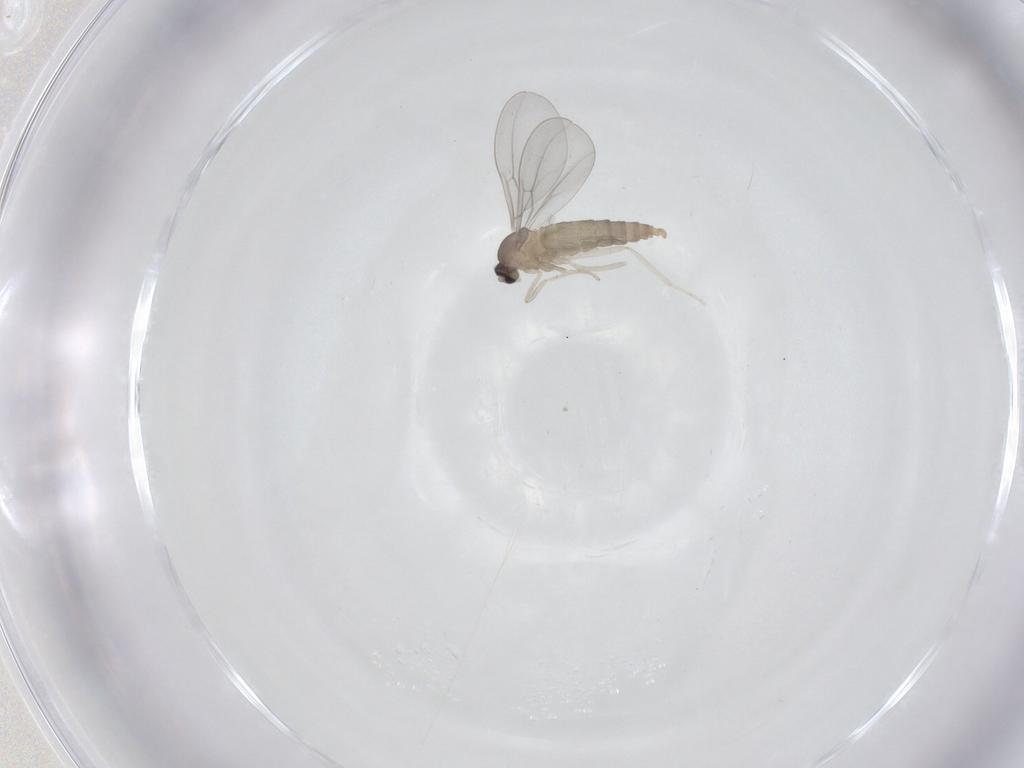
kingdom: Animalia
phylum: Arthropoda
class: Insecta
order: Diptera
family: Cecidomyiidae
